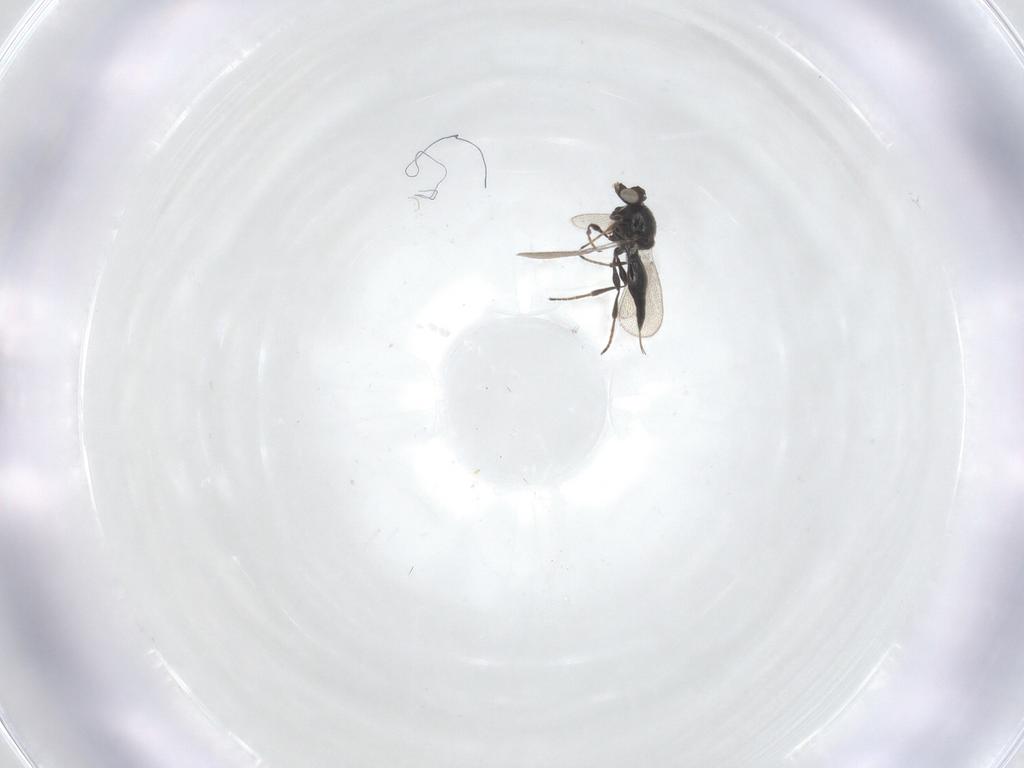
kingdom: Animalia
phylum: Arthropoda
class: Insecta
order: Hymenoptera
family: Platygastridae
